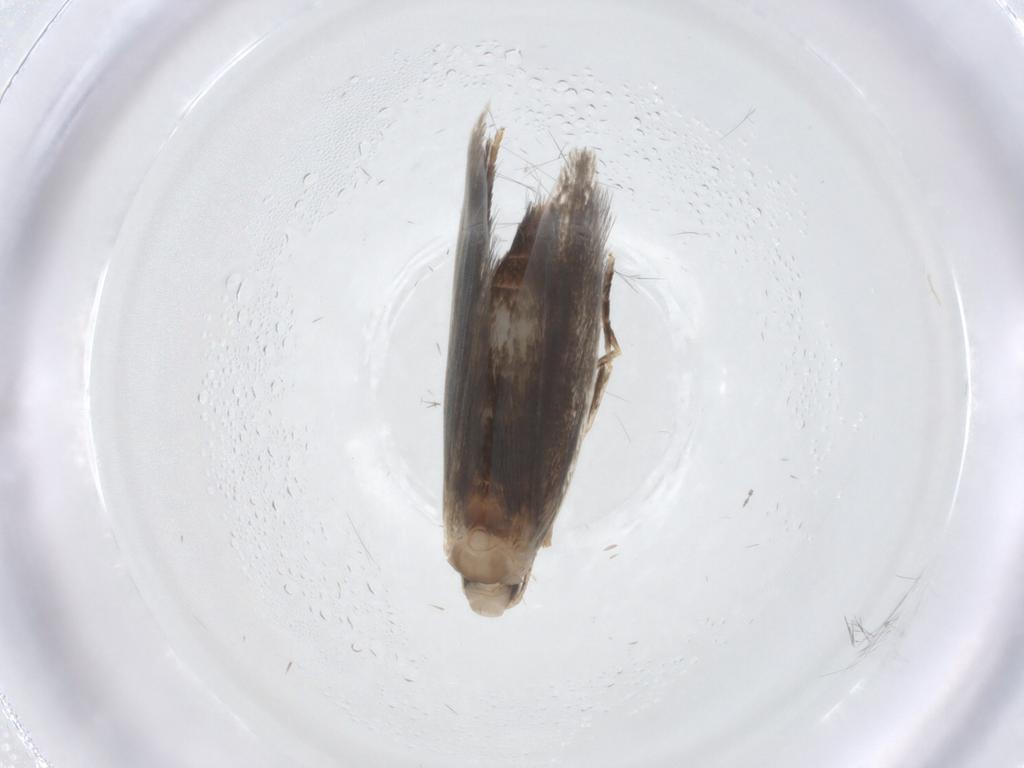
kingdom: Animalia
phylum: Arthropoda
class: Insecta
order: Lepidoptera
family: Tischeriidae
